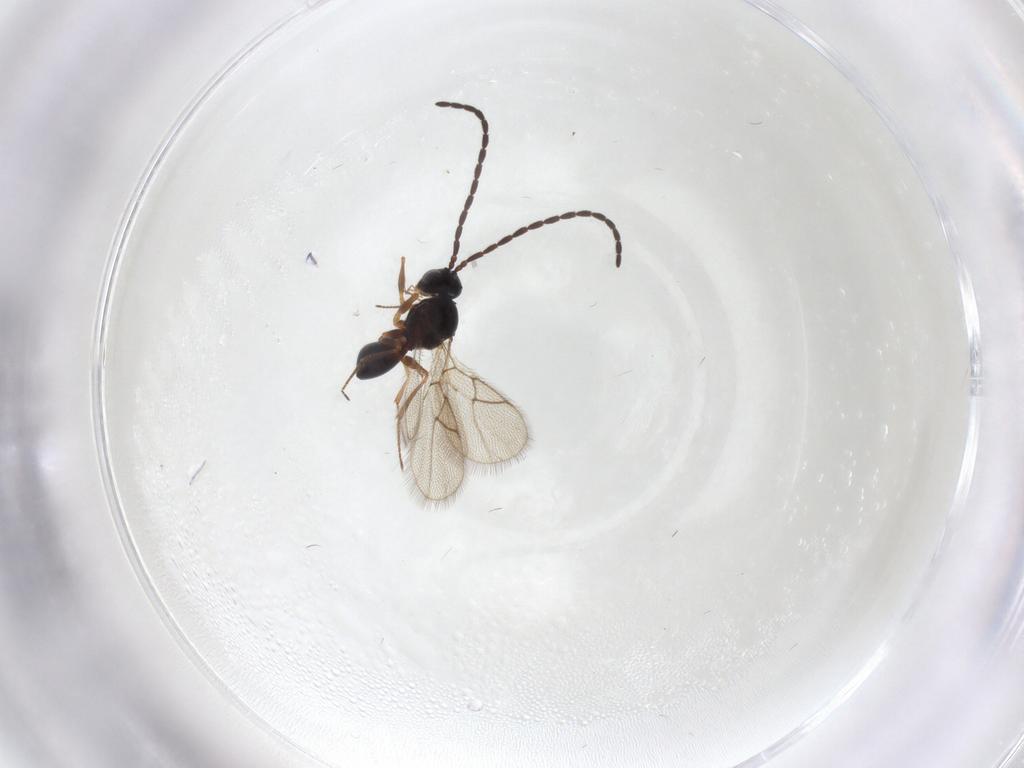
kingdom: Animalia
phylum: Arthropoda
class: Insecta
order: Hymenoptera
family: Figitidae
